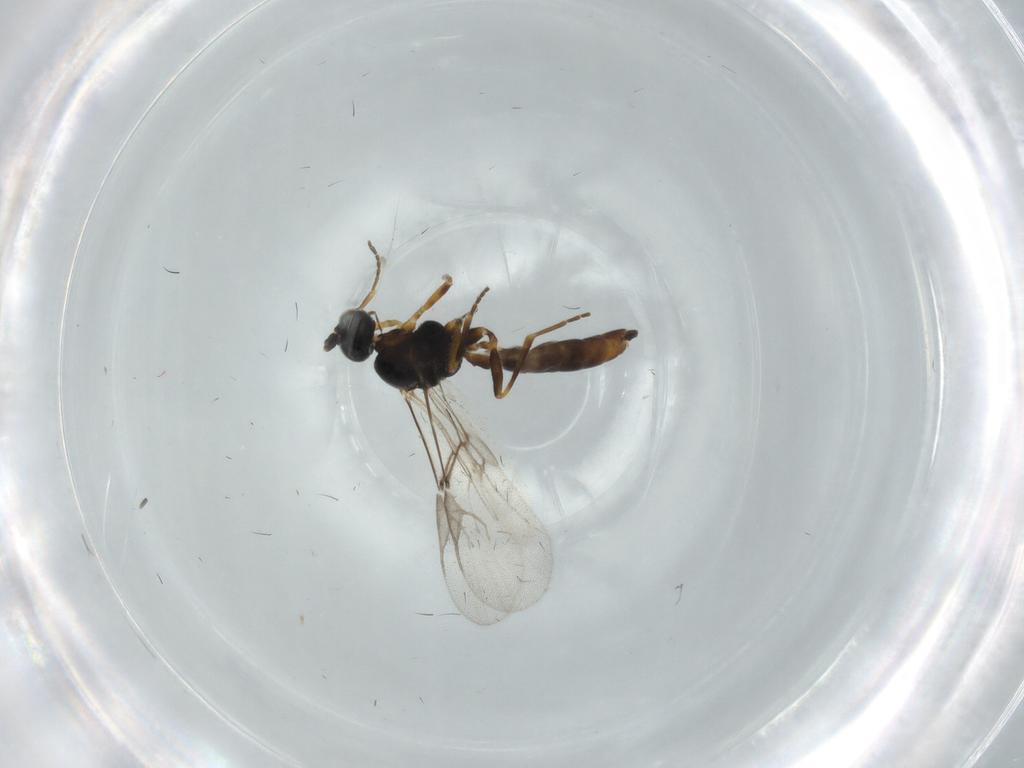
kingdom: Animalia
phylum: Arthropoda
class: Insecta
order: Hymenoptera
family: Braconidae
